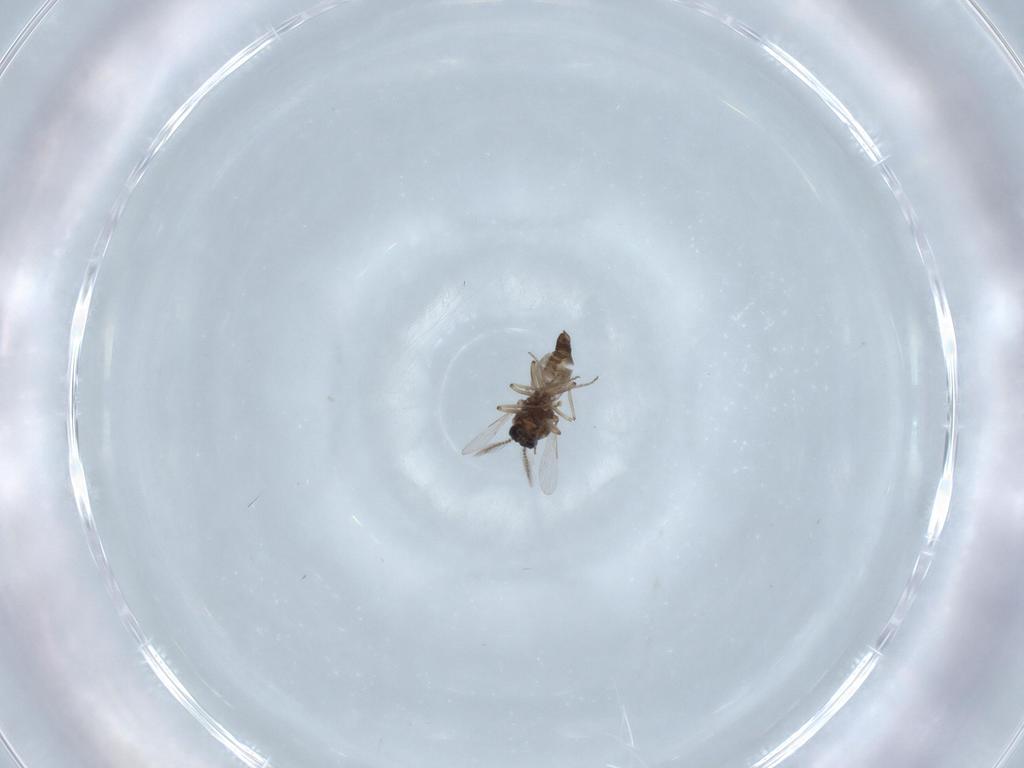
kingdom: Animalia
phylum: Arthropoda
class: Insecta
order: Diptera
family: Ceratopogonidae
